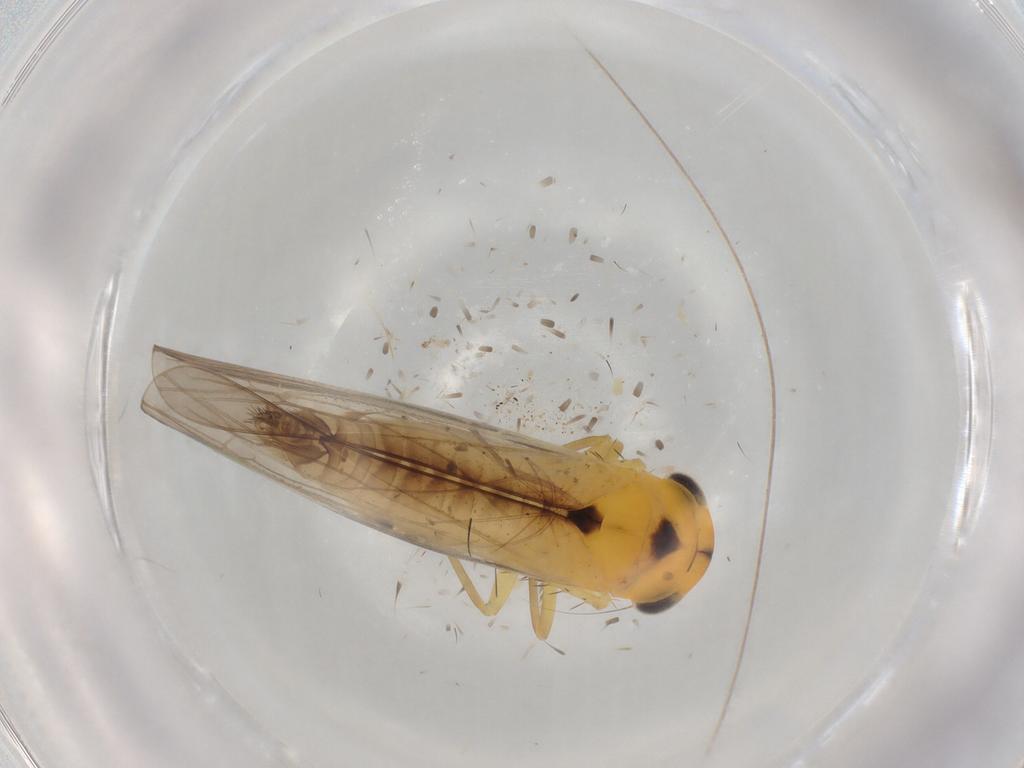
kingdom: Animalia
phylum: Arthropoda
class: Insecta
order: Hemiptera
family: Cicadellidae
